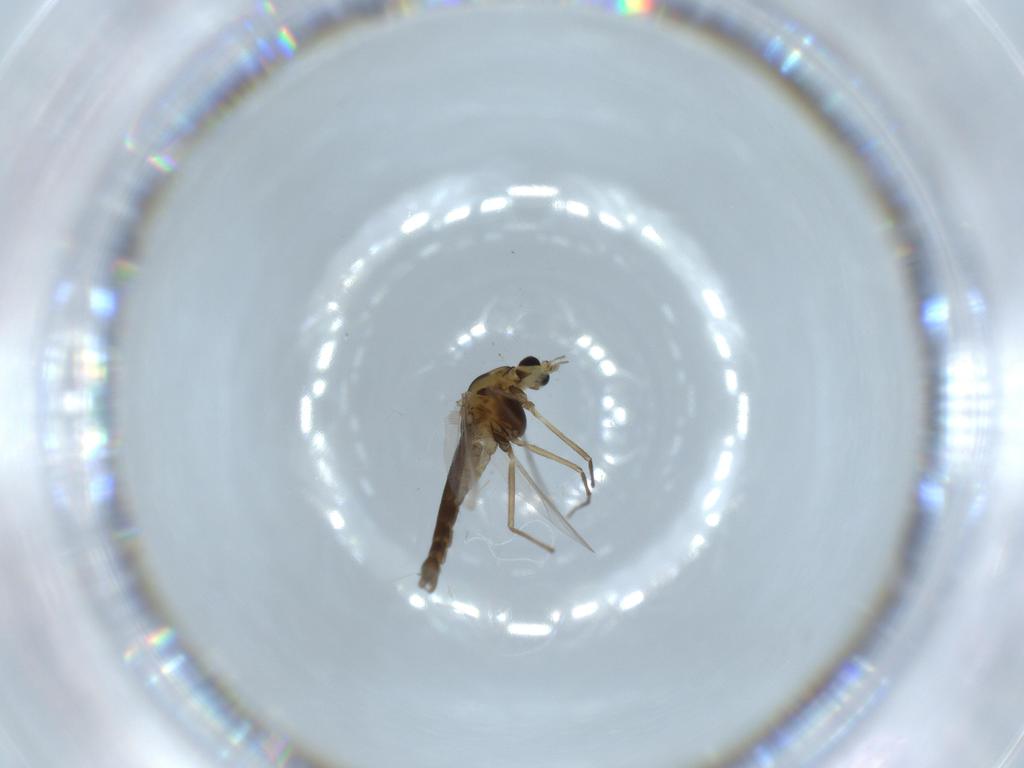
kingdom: Animalia
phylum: Arthropoda
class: Insecta
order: Diptera
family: Chironomidae
